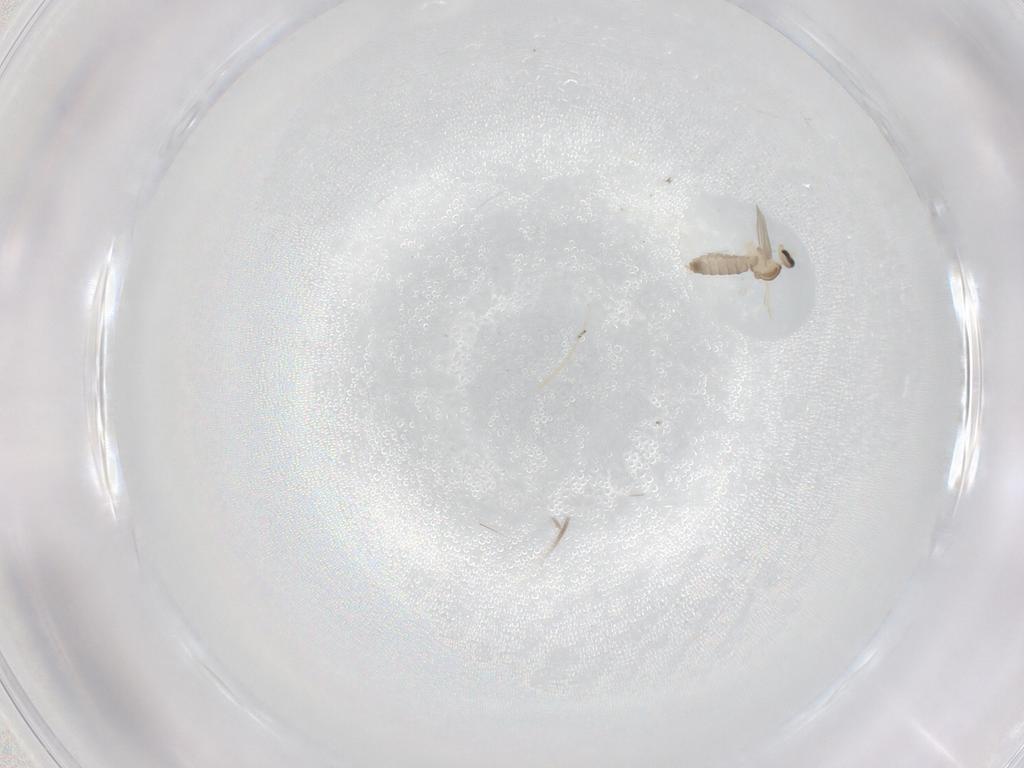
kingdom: Animalia
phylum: Arthropoda
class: Insecta
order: Diptera
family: Cecidomyiidae
